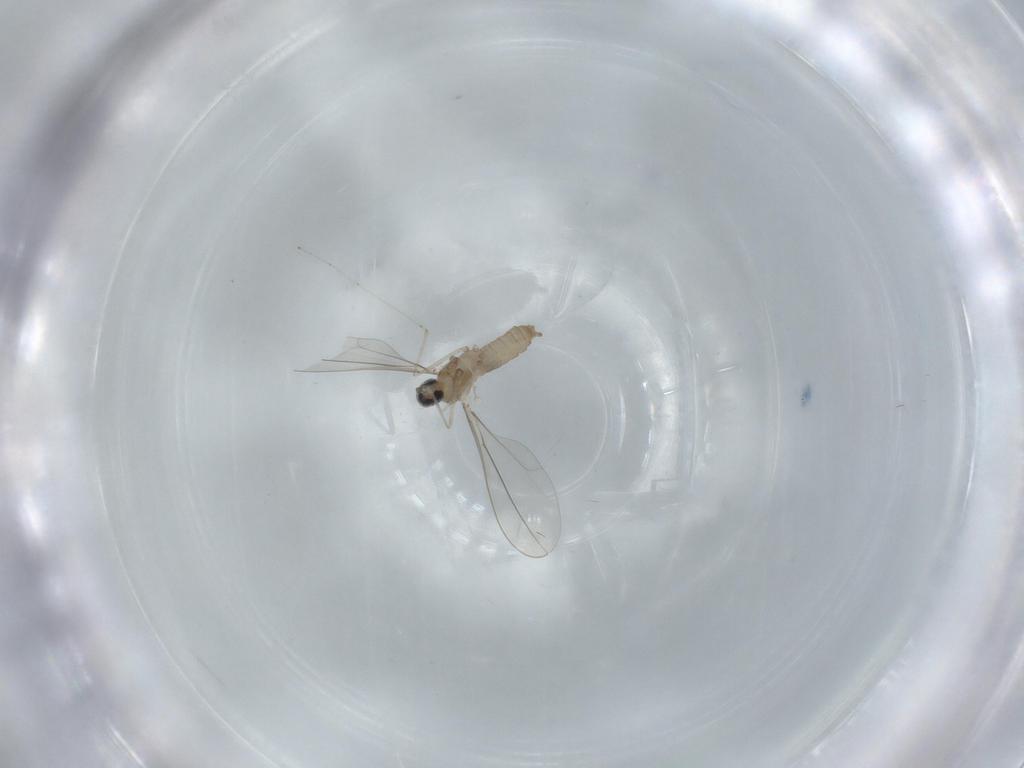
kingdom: Animalia
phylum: Arthropoda
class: Insecta
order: Diptera
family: Cecidomyiidae
